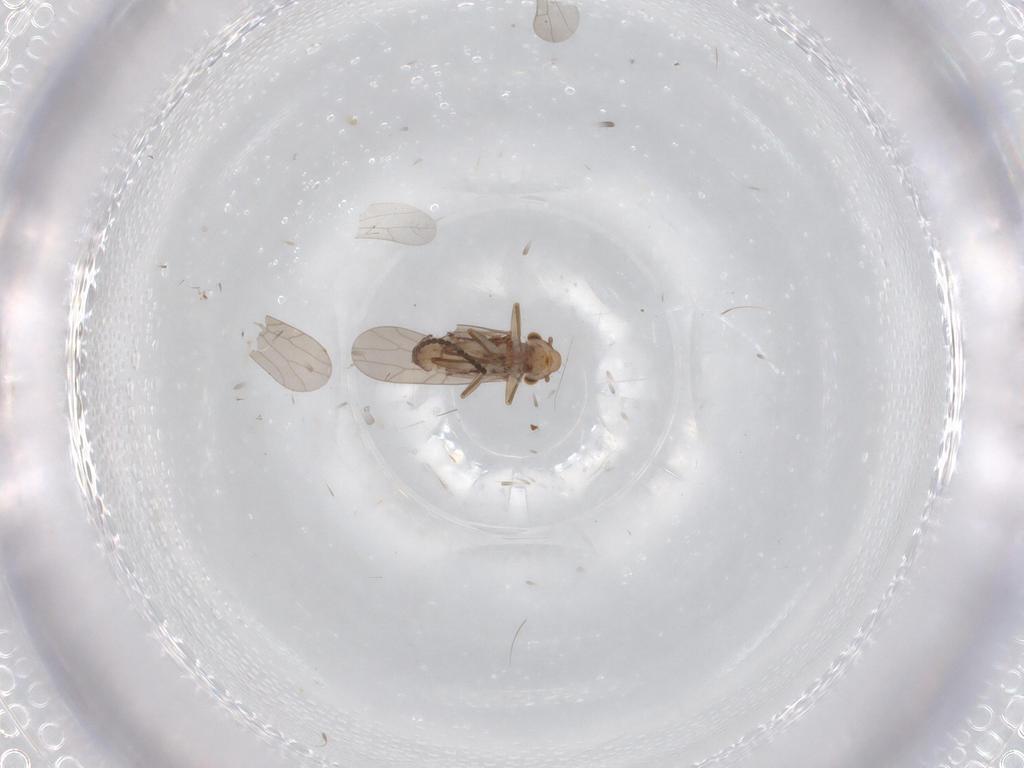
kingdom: Animalia
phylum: Arthropoda
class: Insecta
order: Psocodea
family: Lepidopsocidae
